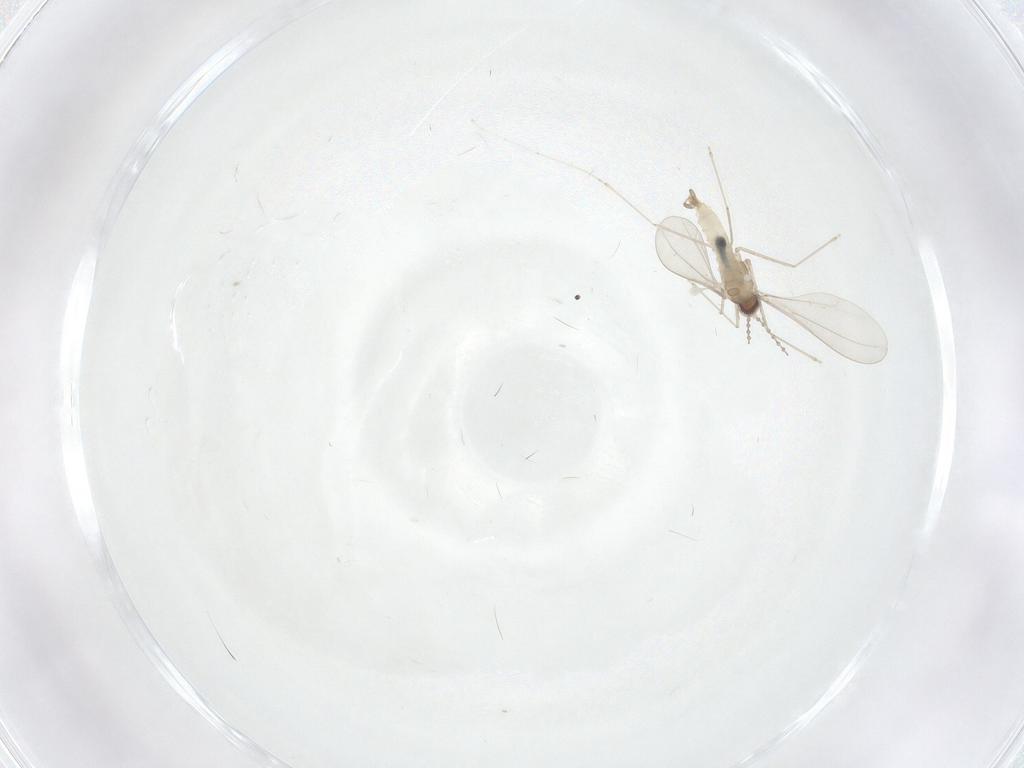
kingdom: Animalia
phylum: Arthropoda
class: Insecta
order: Diptera
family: Cecidomyiidae
